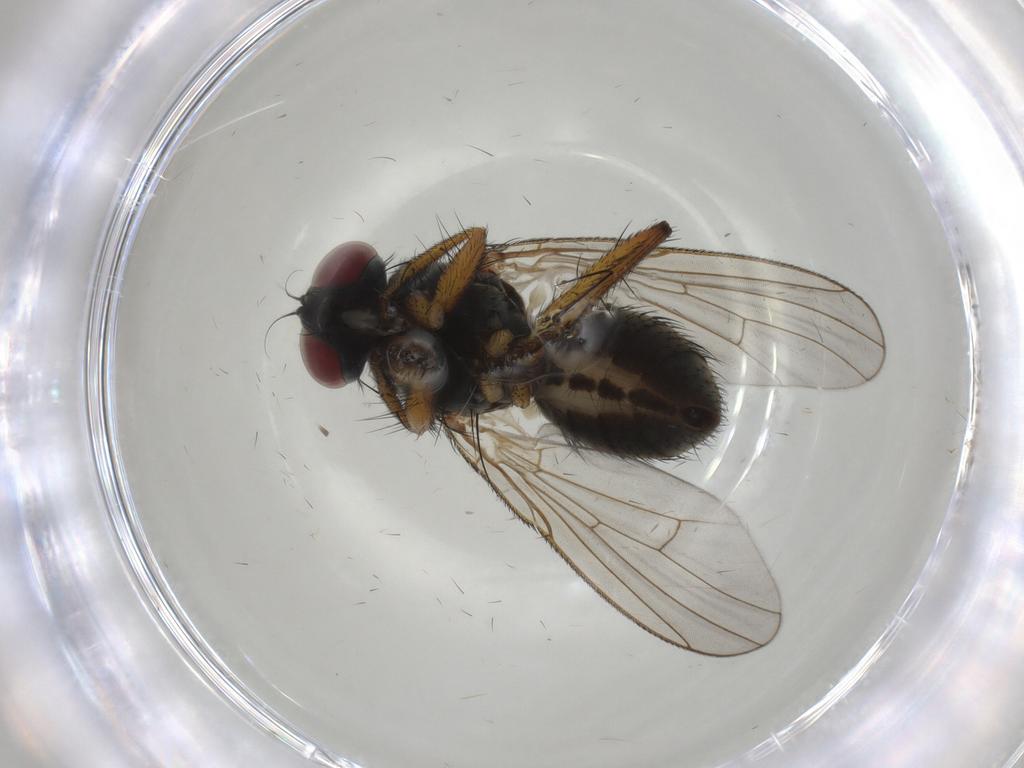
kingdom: Animalia
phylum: Arthropoda
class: Insecta
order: Diptera
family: Muscidae
